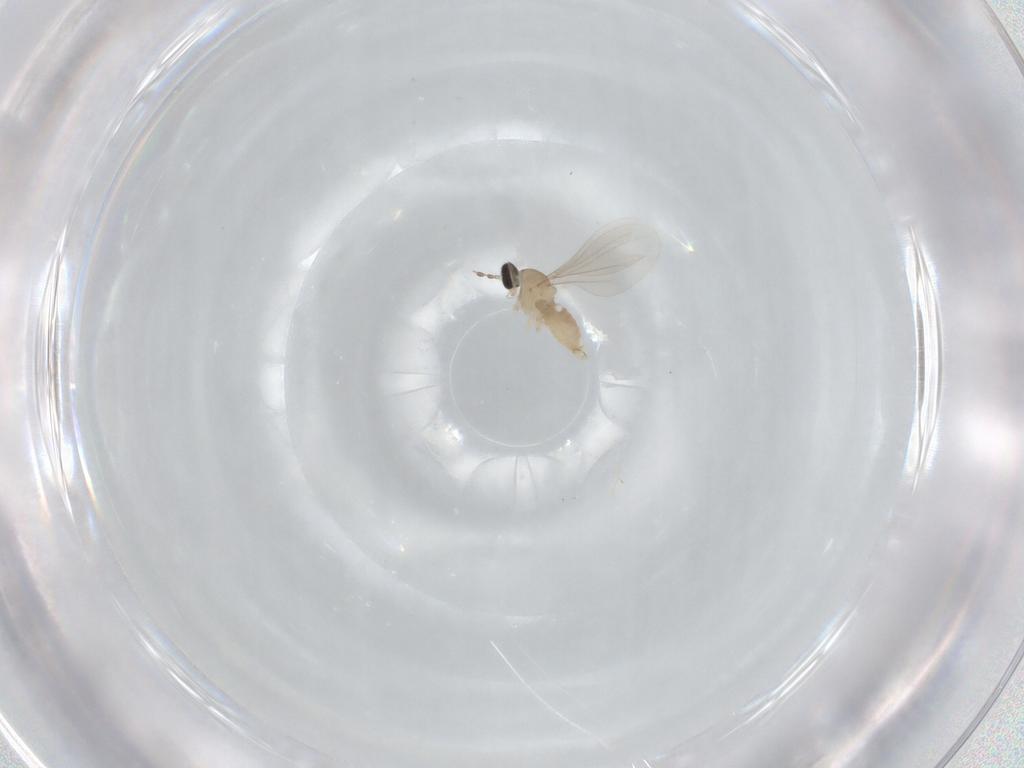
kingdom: Animalia
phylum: Arthropoda
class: Insecta
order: Diptera
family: Cecidomyiidae
